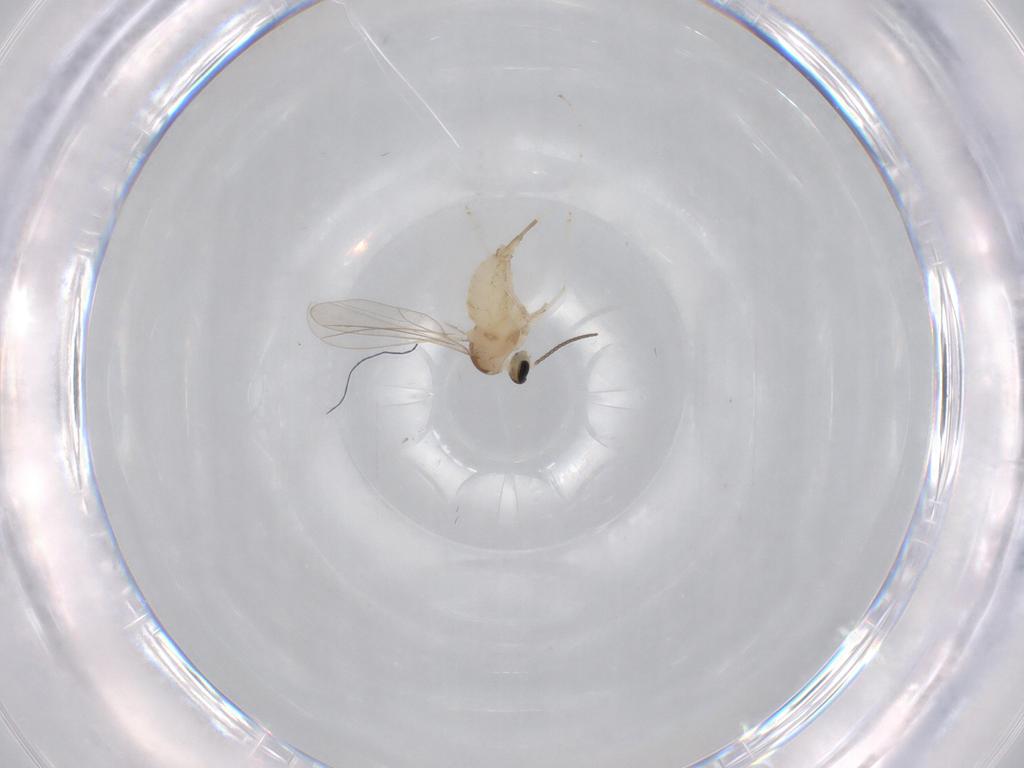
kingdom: Animalia
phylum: Arthropoda
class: Insecta
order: Diptera
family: Cecidomyiidae
